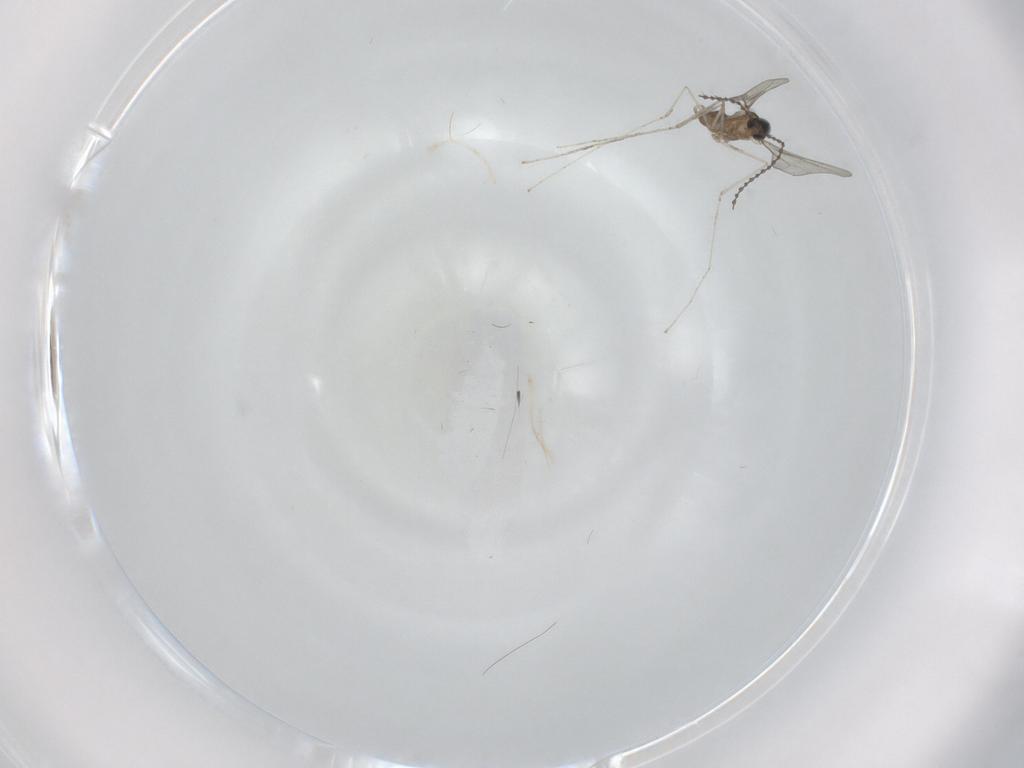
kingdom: Animalia
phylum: Arthropoda
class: Insecta
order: Diptera
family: Cecidomyiidae
